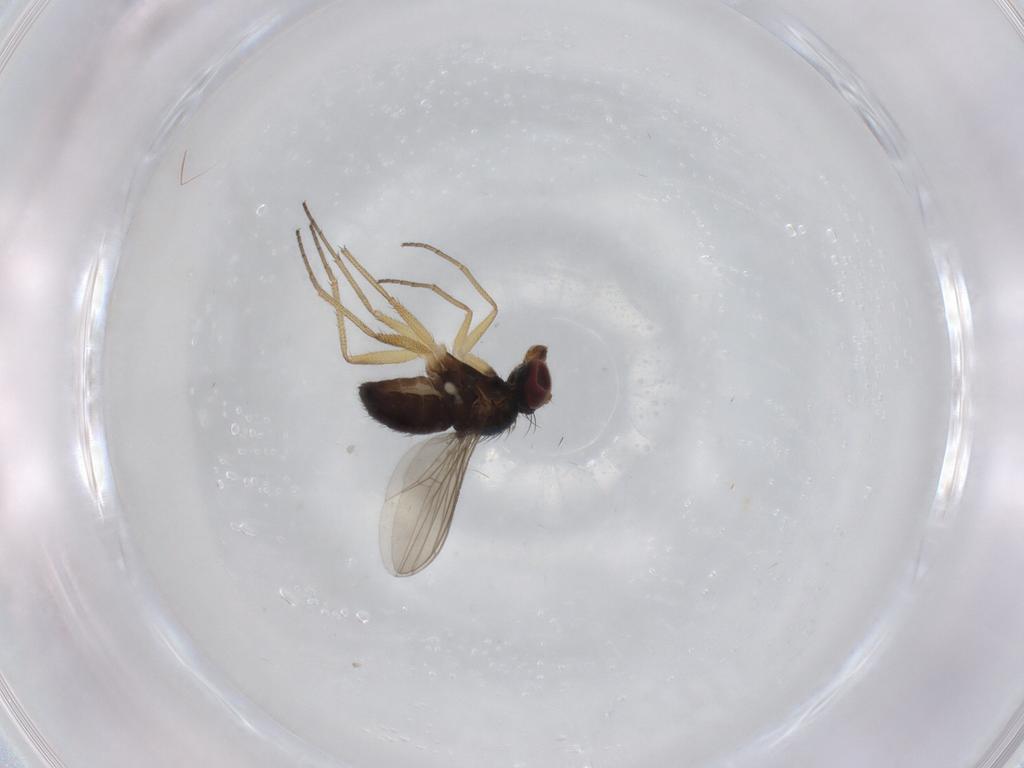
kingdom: Animalia
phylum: Arthropoda
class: Insecta
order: Diptera
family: Dolichopodidae
